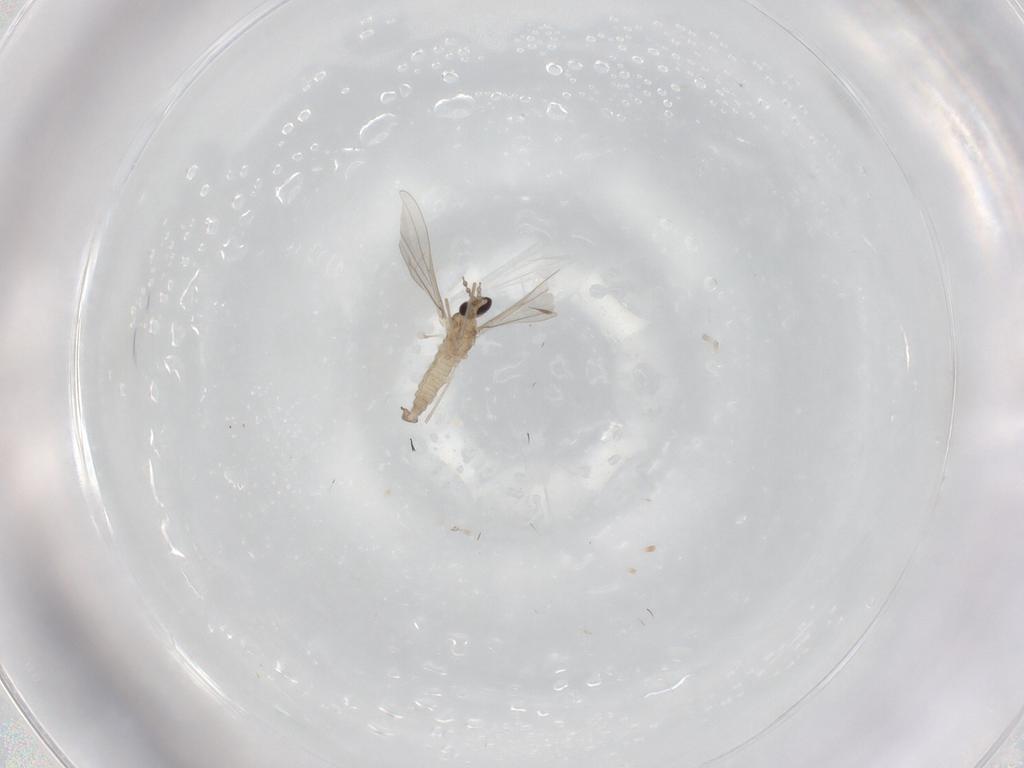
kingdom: Animalia
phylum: Arthropoda
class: Insecta
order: Diptera
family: Cecidomyiidae
